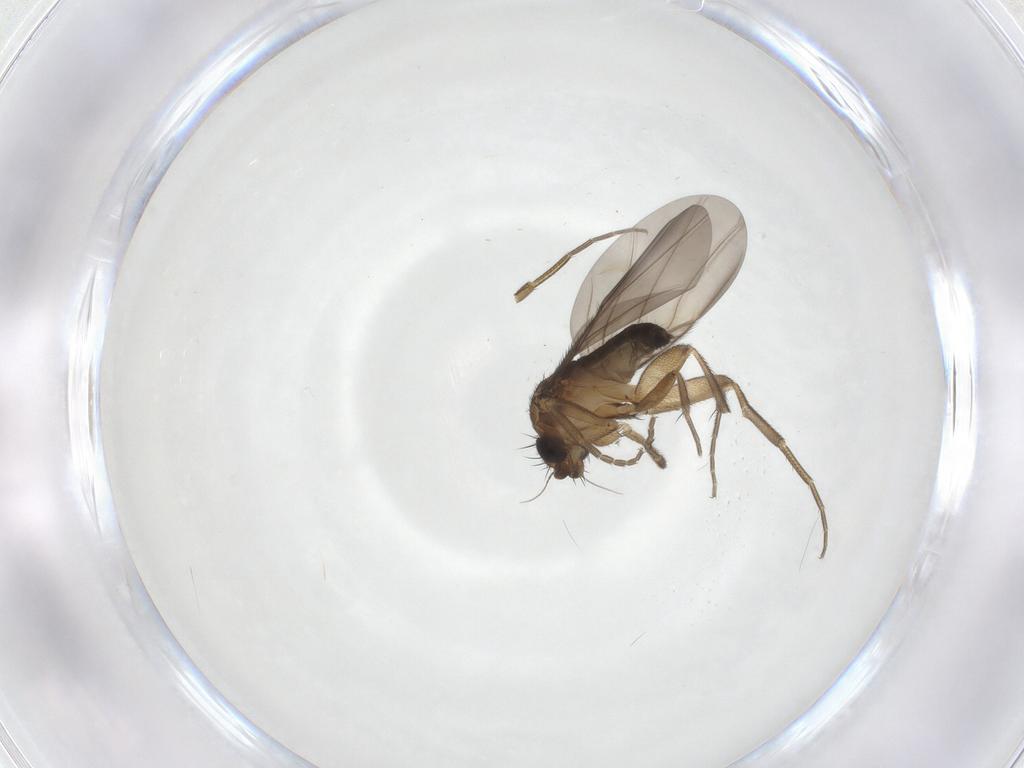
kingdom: Animalia
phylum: Arthropoda
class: Insecta
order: Diptera
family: Phoridae
